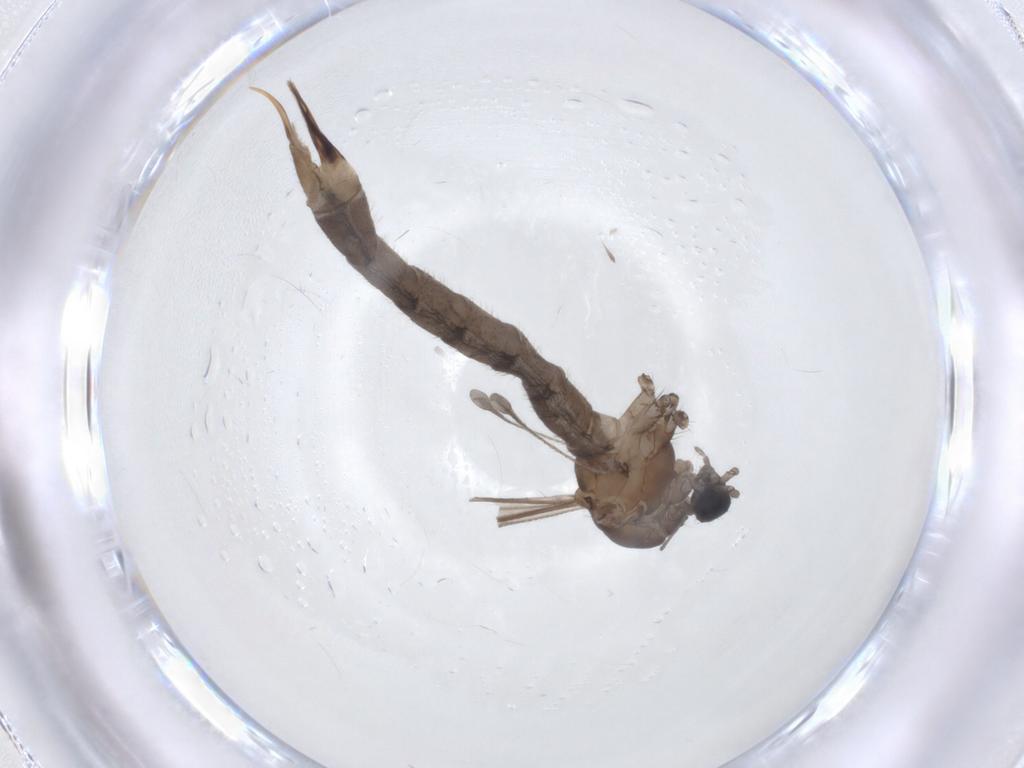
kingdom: Animalia
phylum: Arthropoda
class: Insecta
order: Diptera
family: Limoniidae
